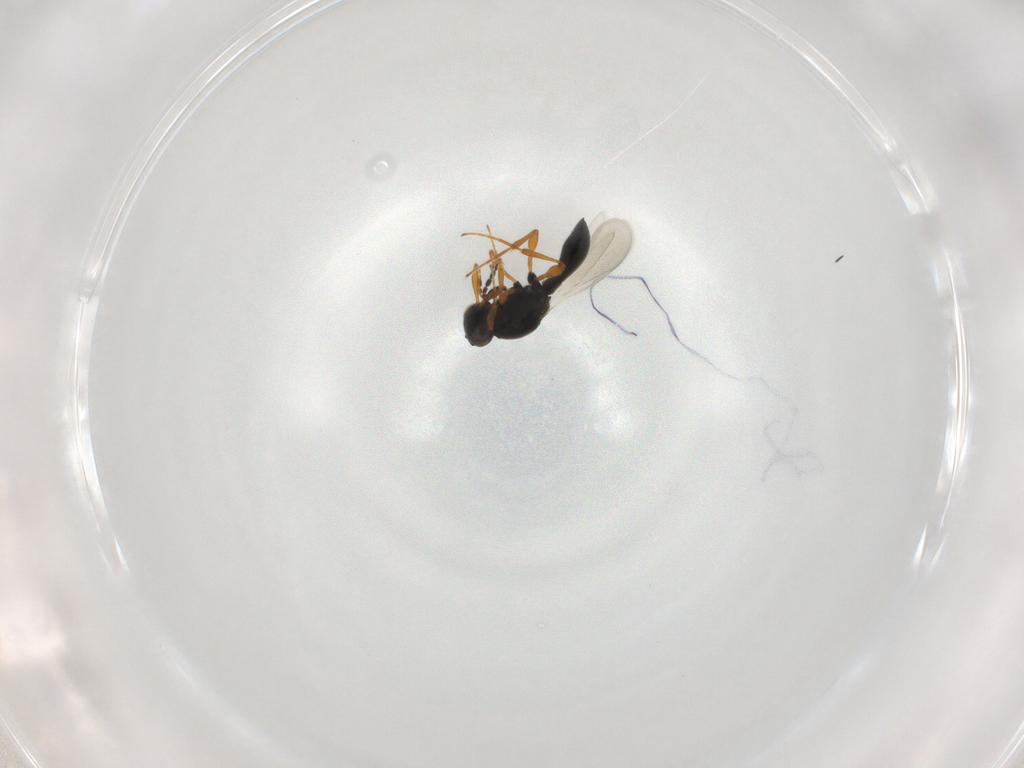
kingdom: Animalia
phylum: Arthropoda
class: Insecta
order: Hymenoptera
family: Platygastridae
